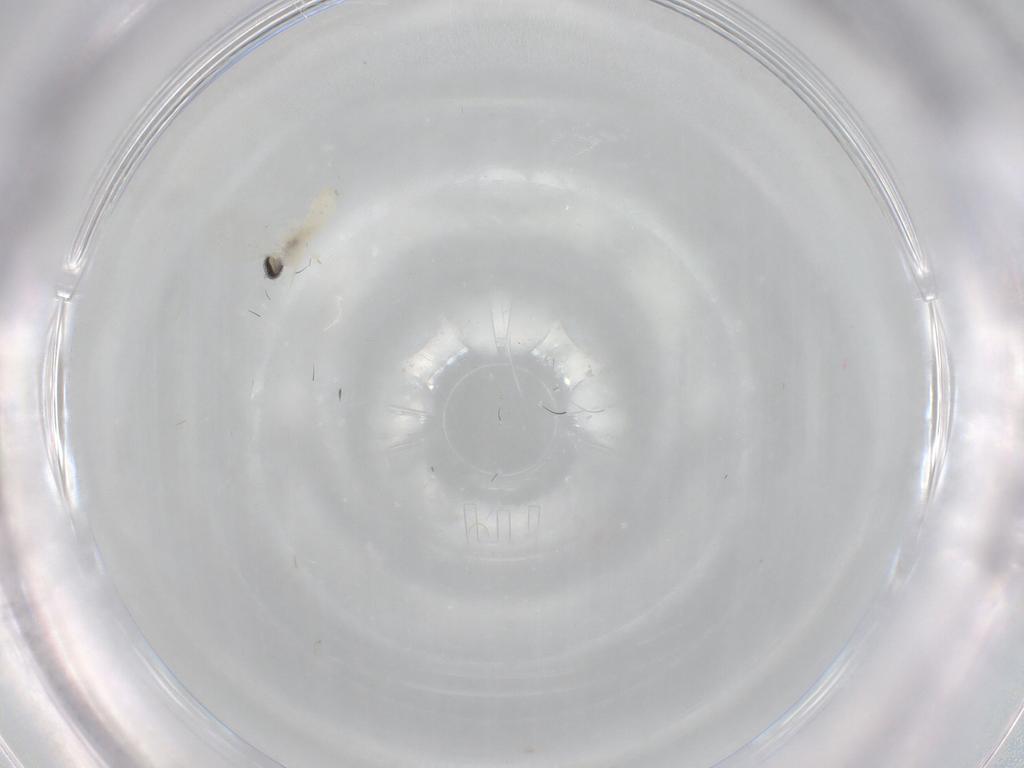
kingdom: Animalia
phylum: Arthropoda
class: Insecta
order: Diptera
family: Sphaeroceridae
